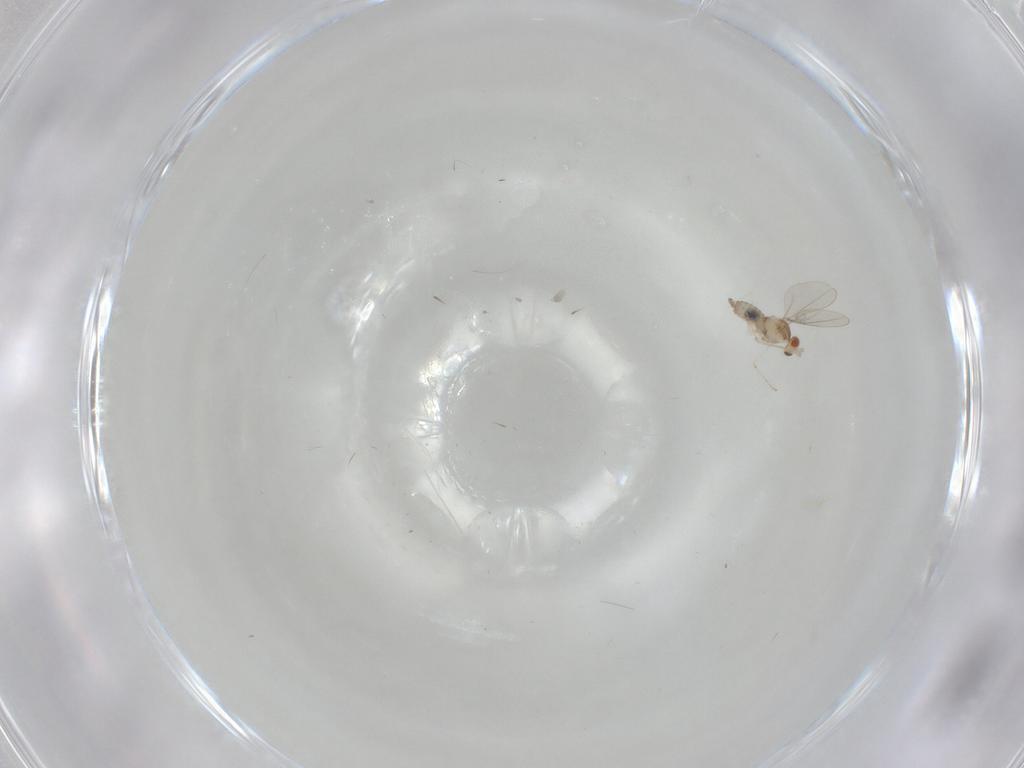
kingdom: Animalia
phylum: Arthropoda
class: Insecta
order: Diptera
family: Cecidomyiidae
